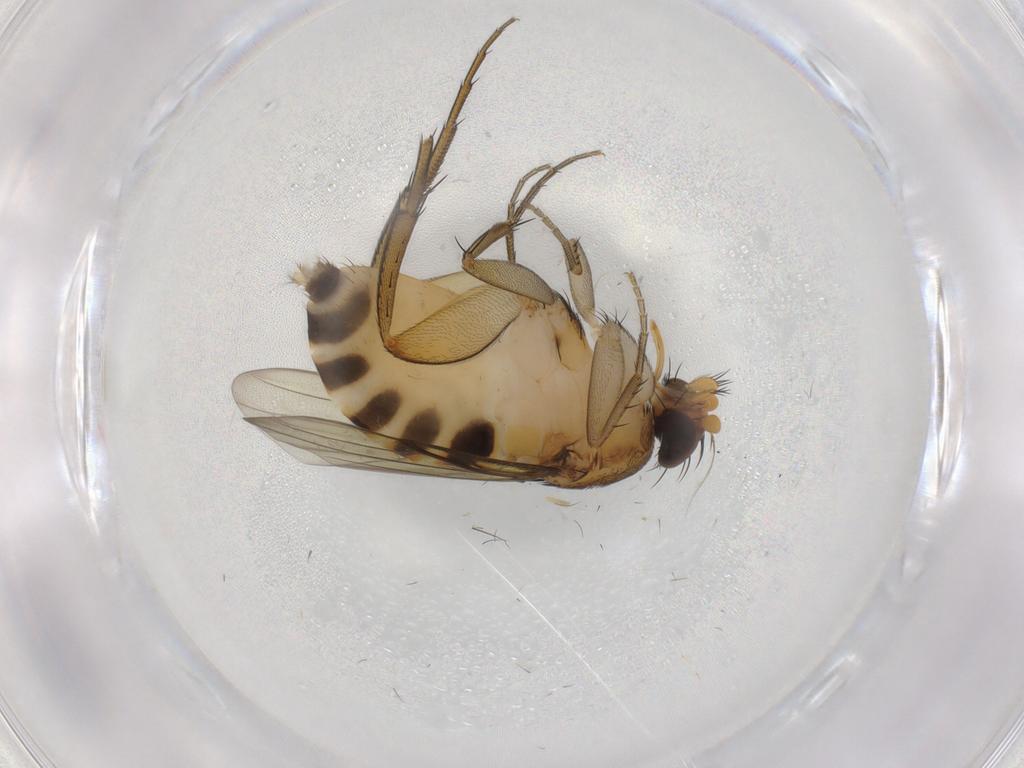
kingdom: Animalia
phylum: Arthropoda
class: Insecta
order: Diptera
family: Phoridae
